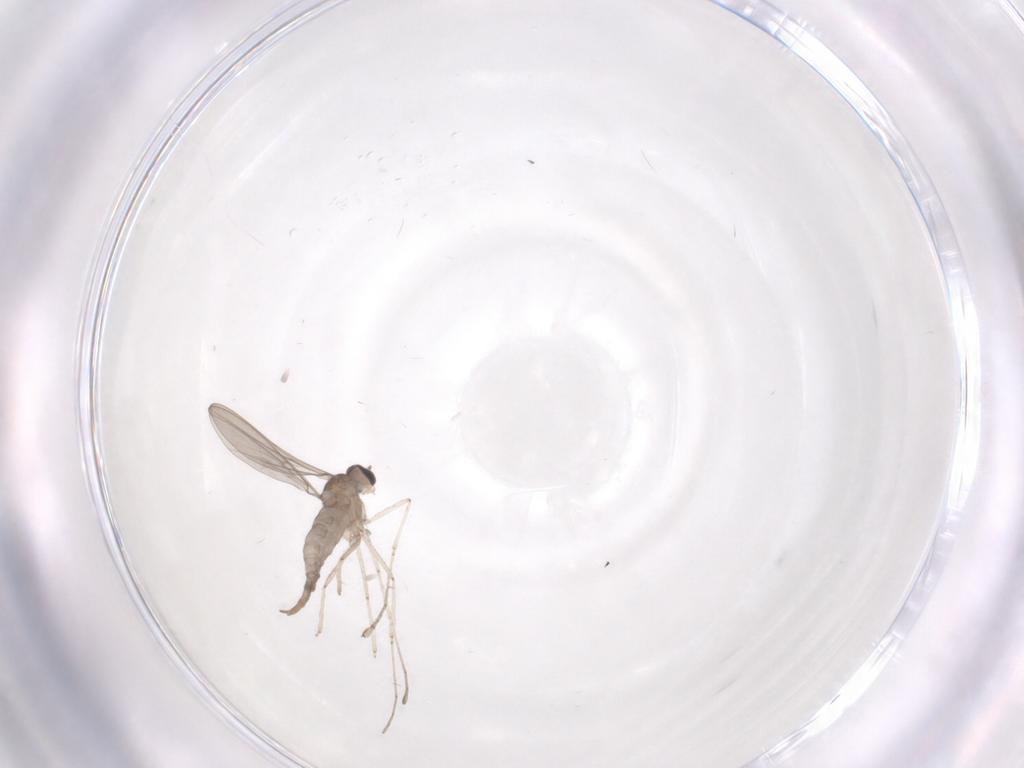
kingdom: Animalia
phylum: Arthropoda
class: Insecta
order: Diptera
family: Cecidomyiidae
